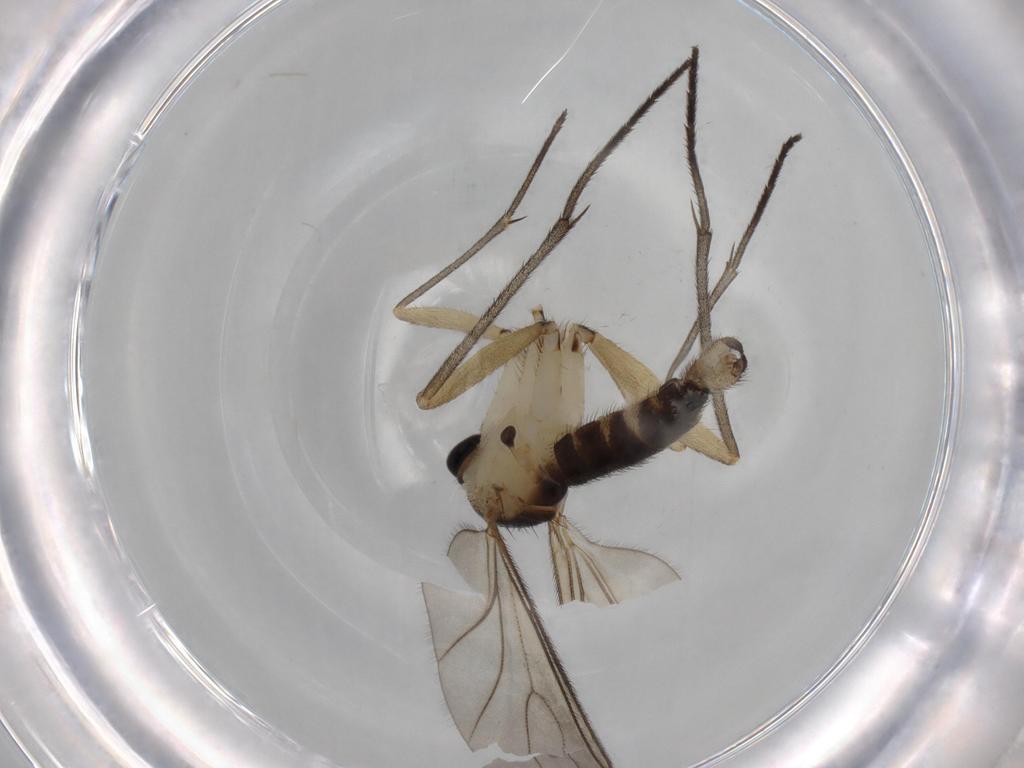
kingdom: Animalia
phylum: Arthropoda
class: Insecta
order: Diptera
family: Sciaridae
